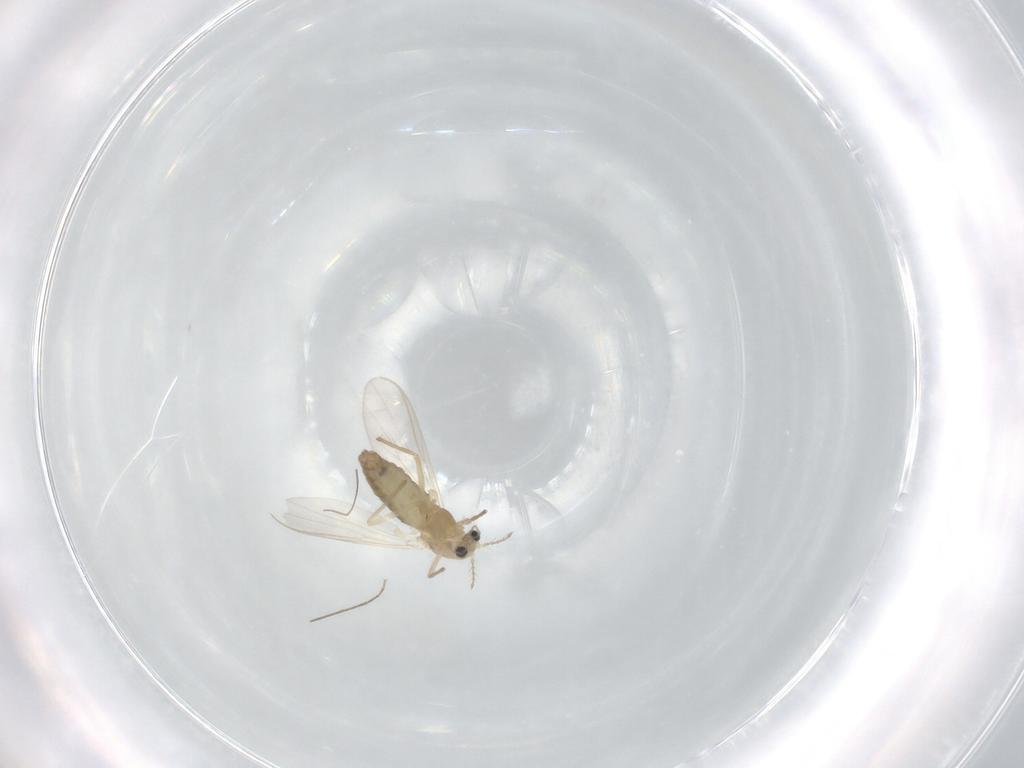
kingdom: Animalia
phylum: Arthropoda
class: Insecta
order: Diptera
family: Chironomidae
